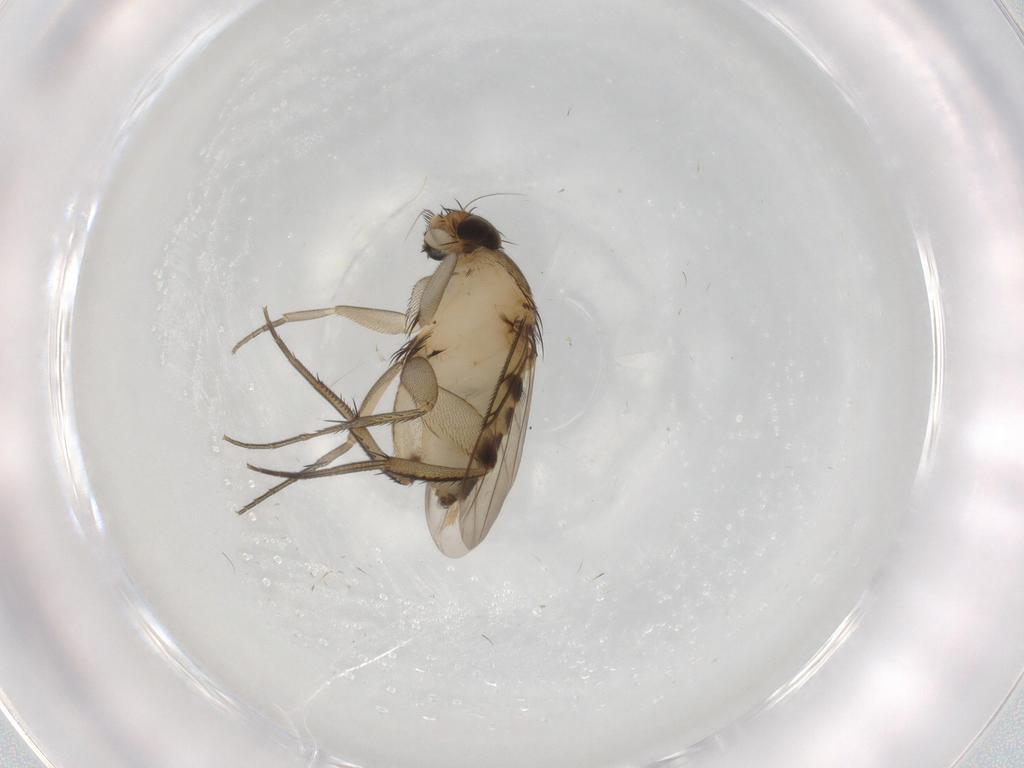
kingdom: Animalia
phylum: Arthropoda
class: Insecta
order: Diptera
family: Phoridae
